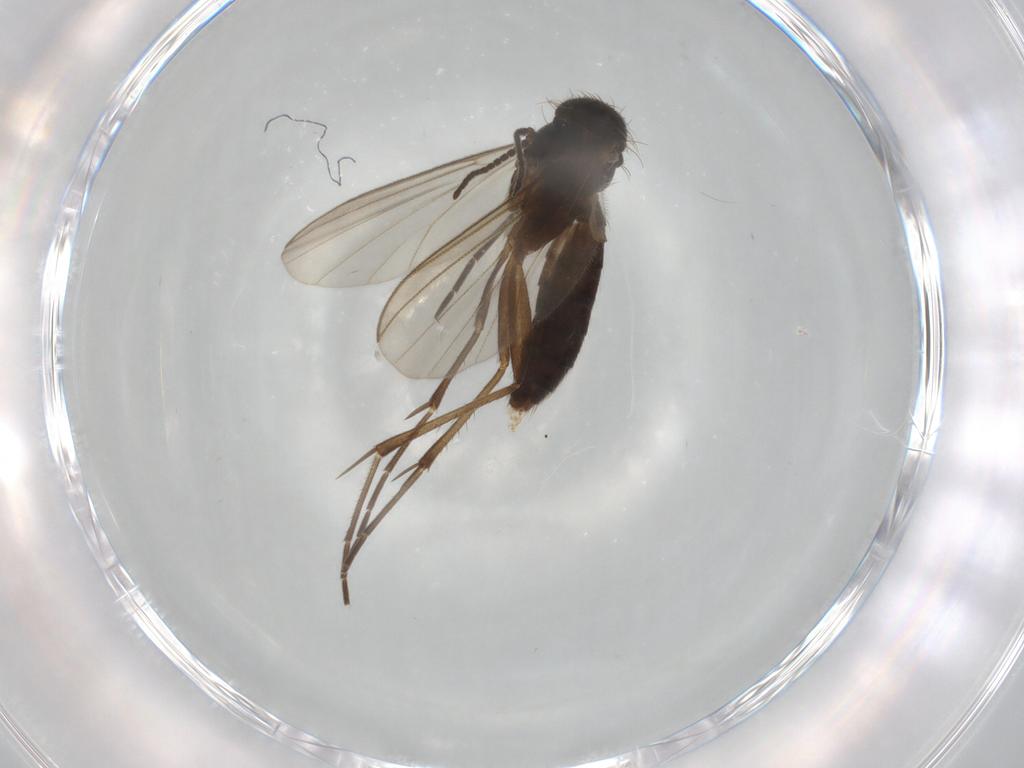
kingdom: Animalia
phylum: Arthropoda
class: Insecta
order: Diptera
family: Mycetophilidae
